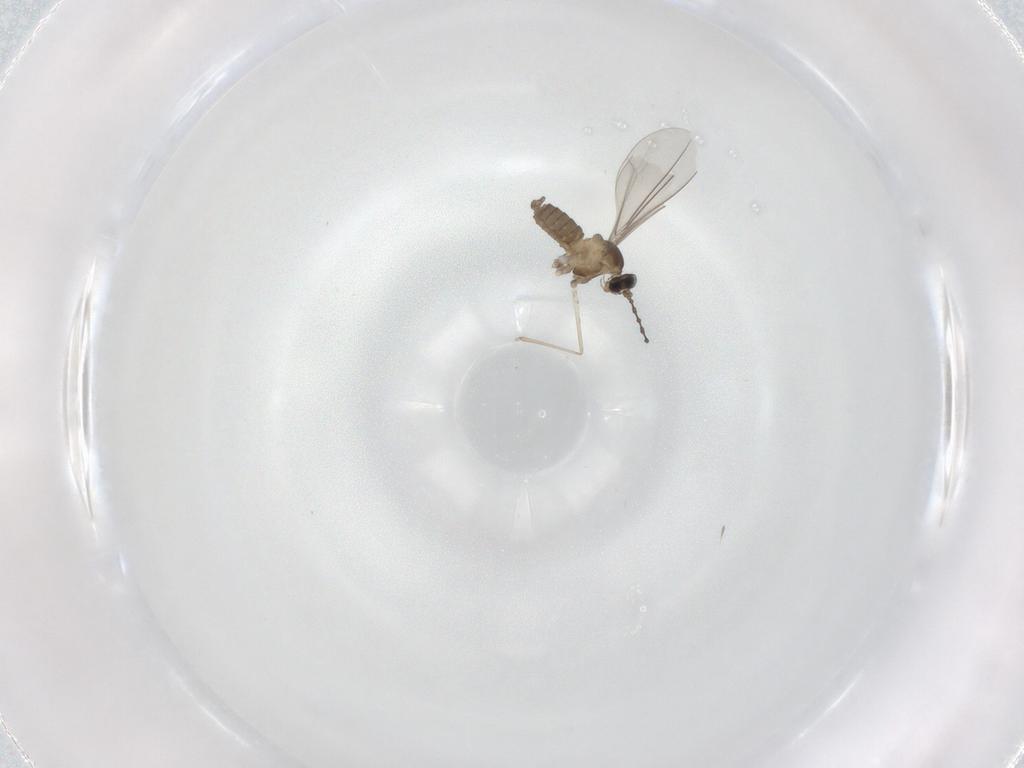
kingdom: Animalia
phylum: Arthropoda
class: Insecta
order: Diptera
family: Cecidomyiidae
